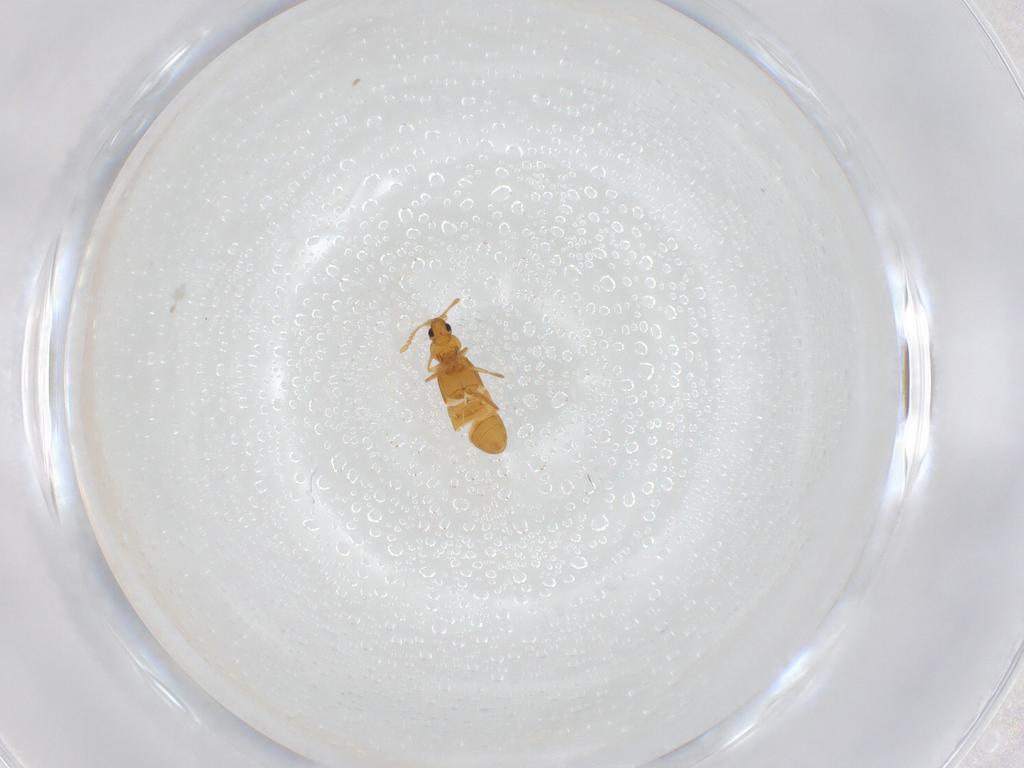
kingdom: Animalia
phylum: Arthropoda
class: Insecta
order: Coleoptera
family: Staphylinidae
